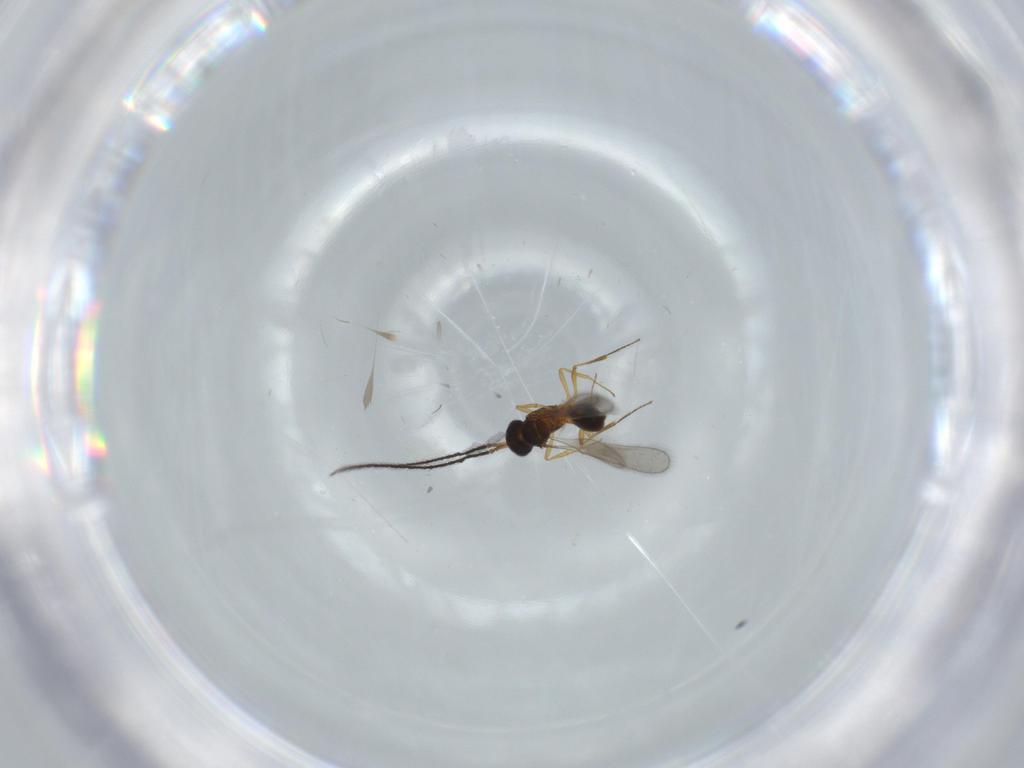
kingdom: Animalia
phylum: Arthropoda
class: Insecta
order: Hymenoptera
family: Scelionidae
